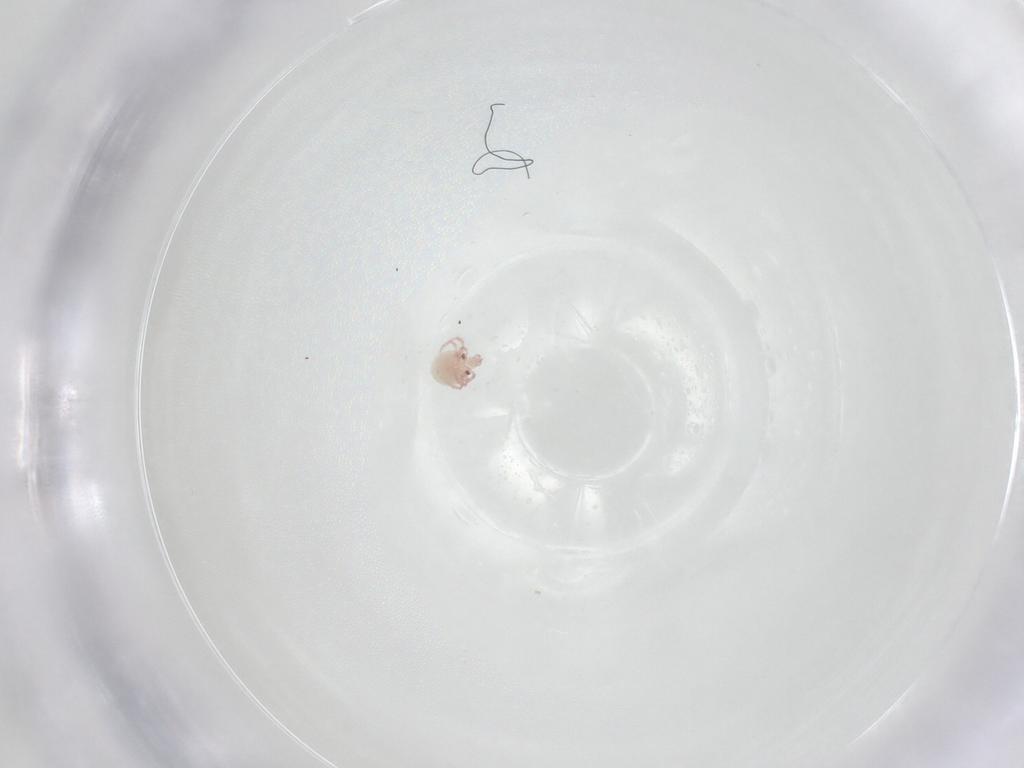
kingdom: Animalia
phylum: Arthropoda
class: Arachnida
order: Trombidiformes
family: Pionidae
